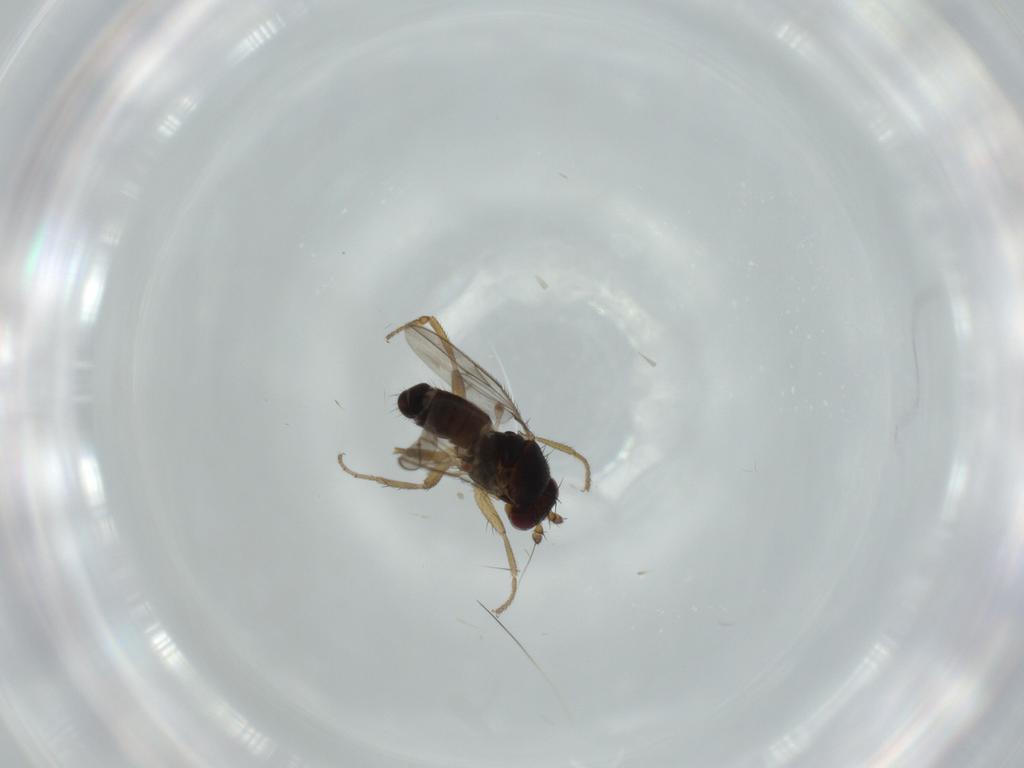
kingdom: Animalia
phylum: Arthropoda
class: Insecta
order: Diptera
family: Sphaeroceridae
